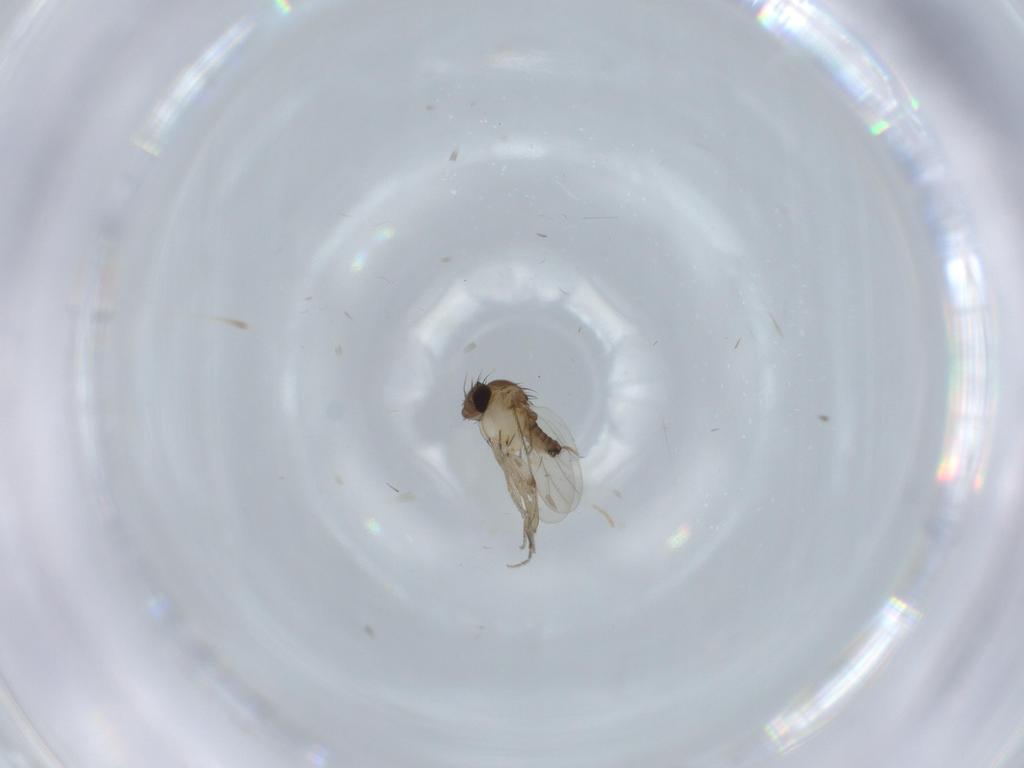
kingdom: Animalia
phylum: Arthropoda
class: Insecta
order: Diptera
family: Phoridae
